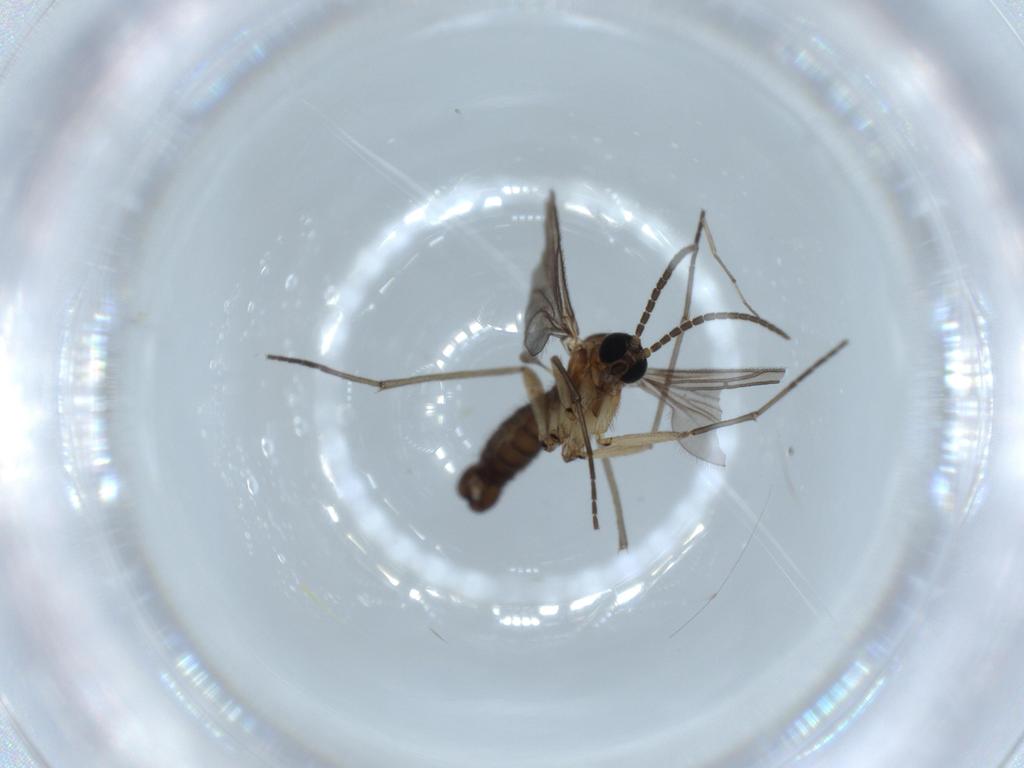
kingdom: Animalia
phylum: Arthropoda
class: Insecta
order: Diptera
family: Sciaridae
